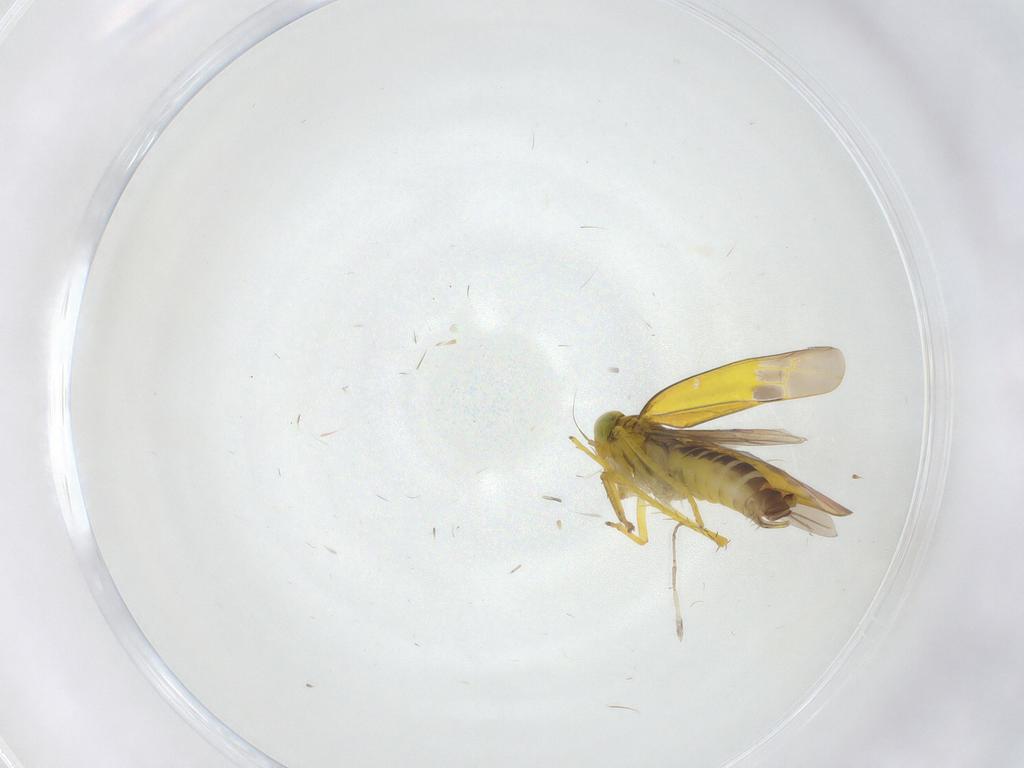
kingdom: Animalia
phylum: Arthropoda
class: Insecta
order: Hemiptera
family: Cicadellidae
